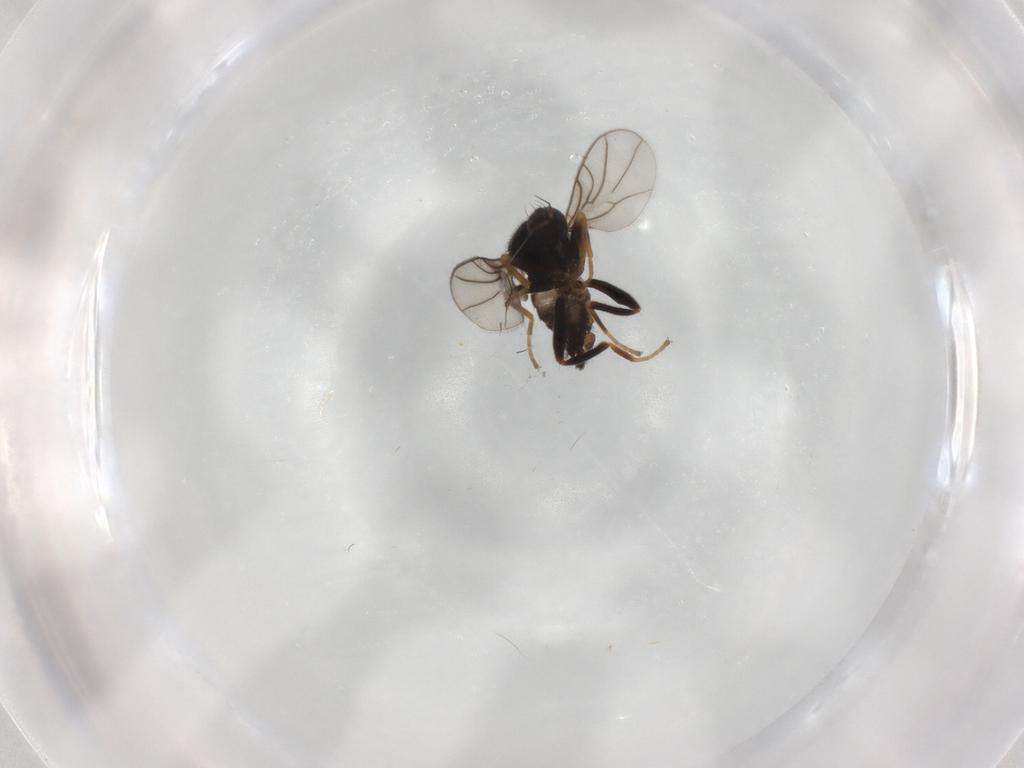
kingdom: Animalia
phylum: Arthropoda
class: Insecta
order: Diptera
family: Hybotidae
